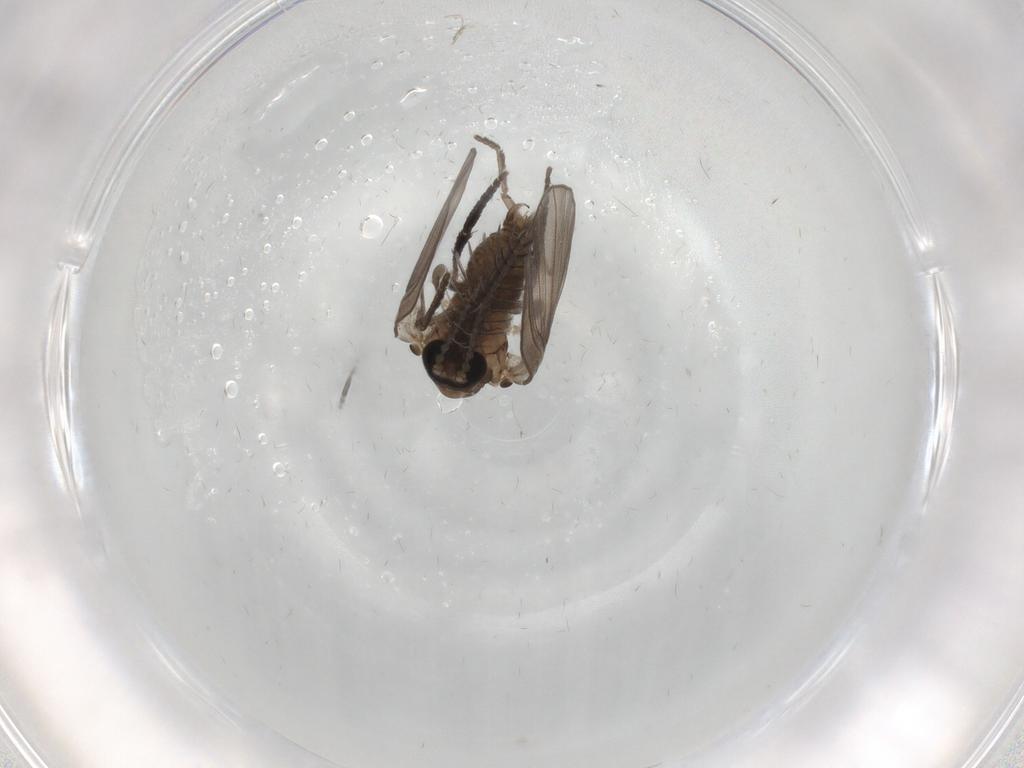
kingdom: Animalia
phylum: Arthropoda
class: Insecta
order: Diptera
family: Psychodidae
